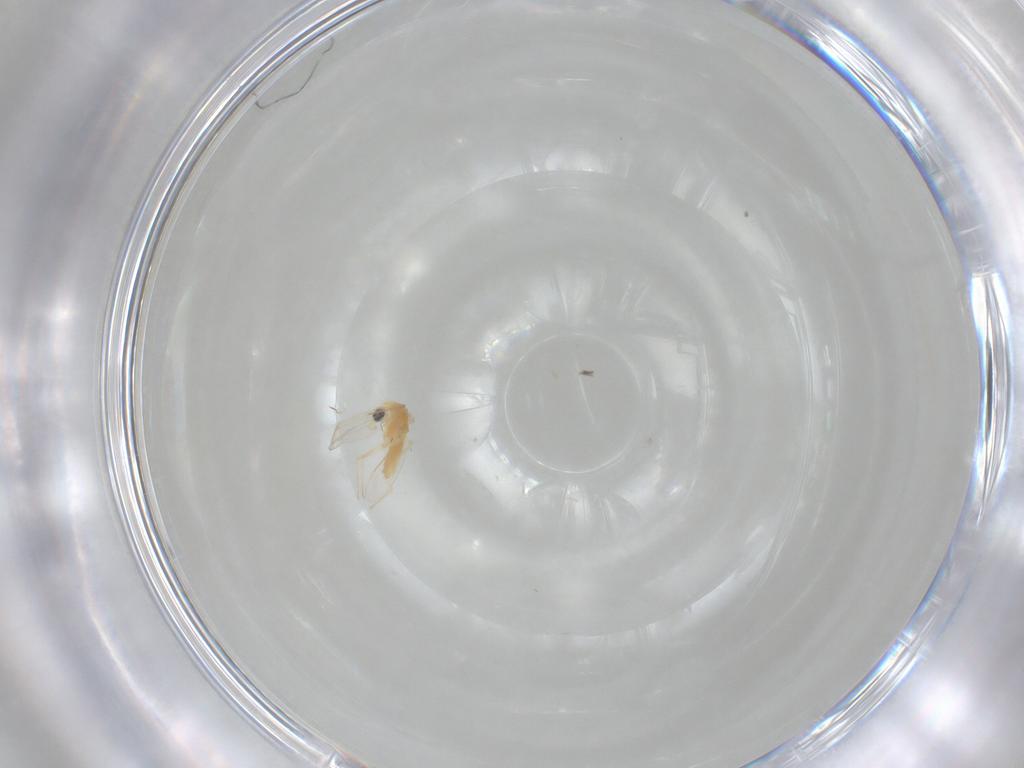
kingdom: Animalia
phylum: Arthropoda
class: Insecta
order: Diptera
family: Chironomidae
